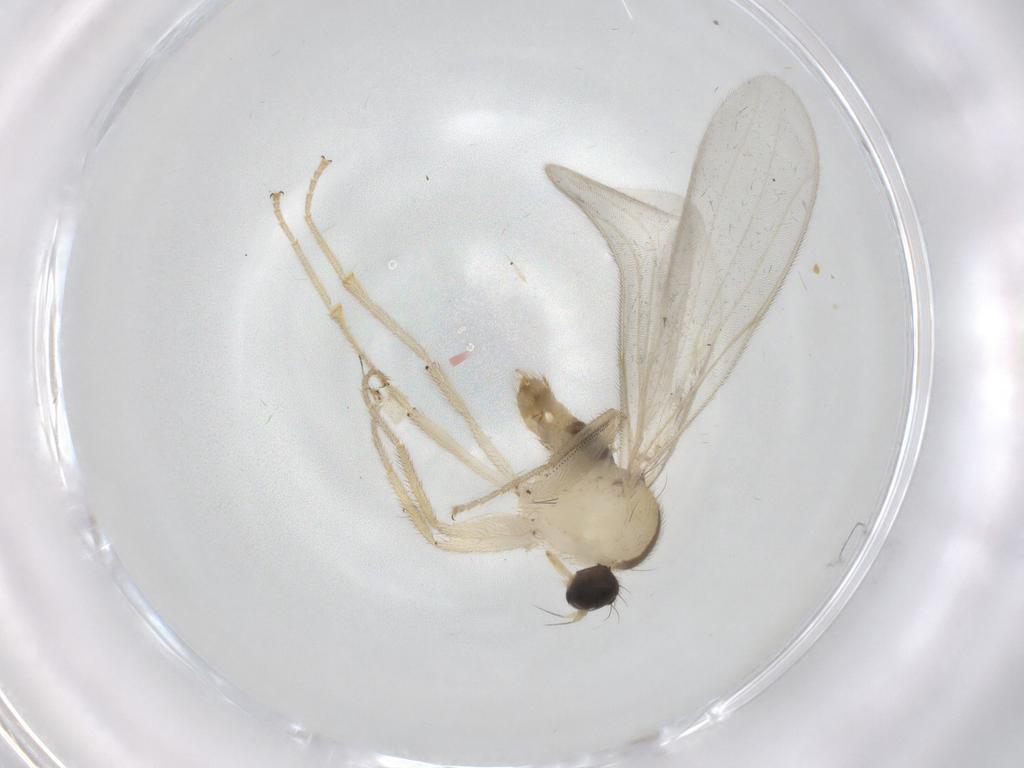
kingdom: Animalia
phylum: Arthropoda
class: Insecta
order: Diptera
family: Hybotidae
